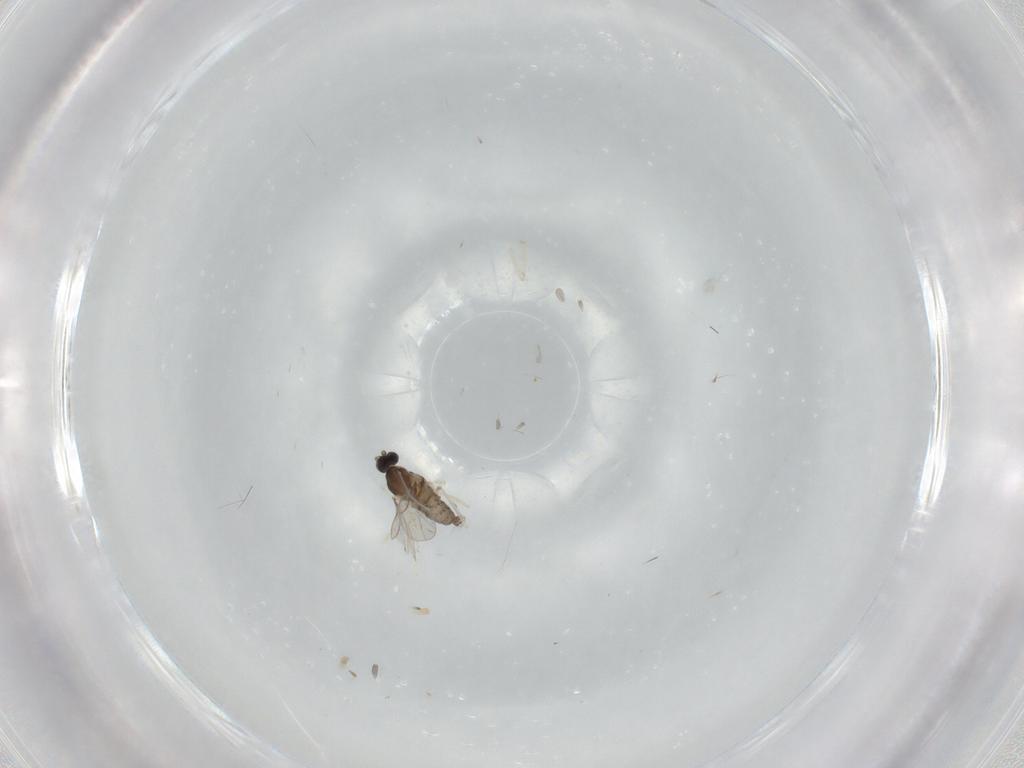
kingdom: Animalia
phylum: Arthropoda
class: Insecta
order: Diptera
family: Cecidomyiidae
